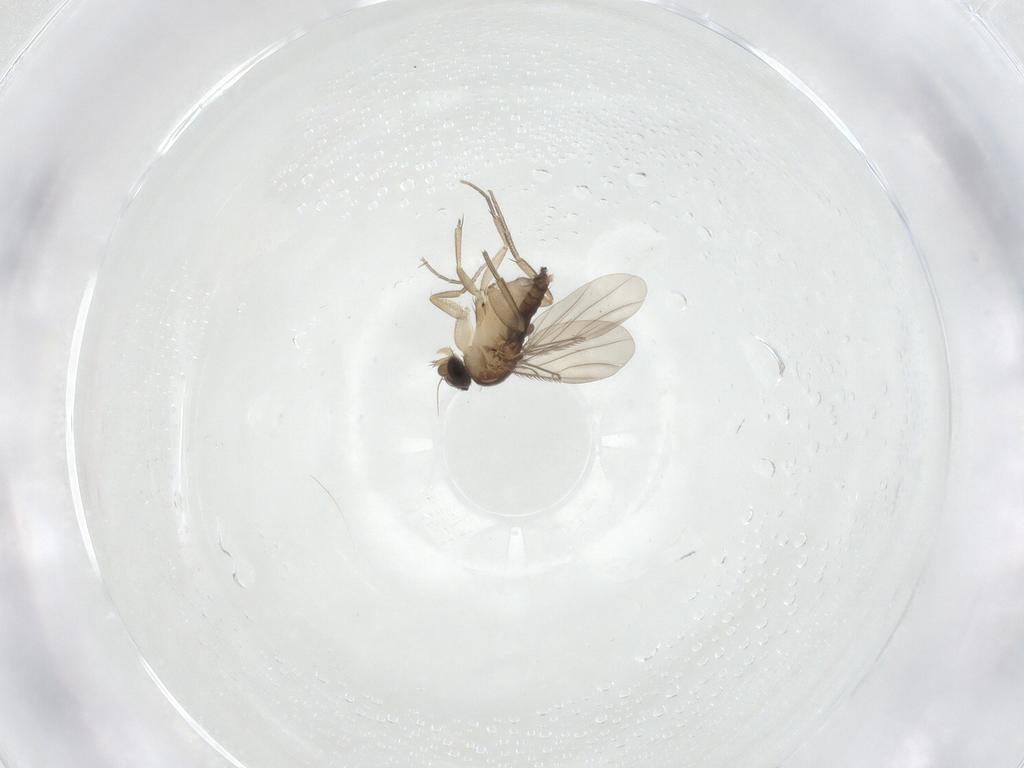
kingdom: Animalia
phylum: Arthropoda
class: Insecta
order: Diptera
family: Phoridae
